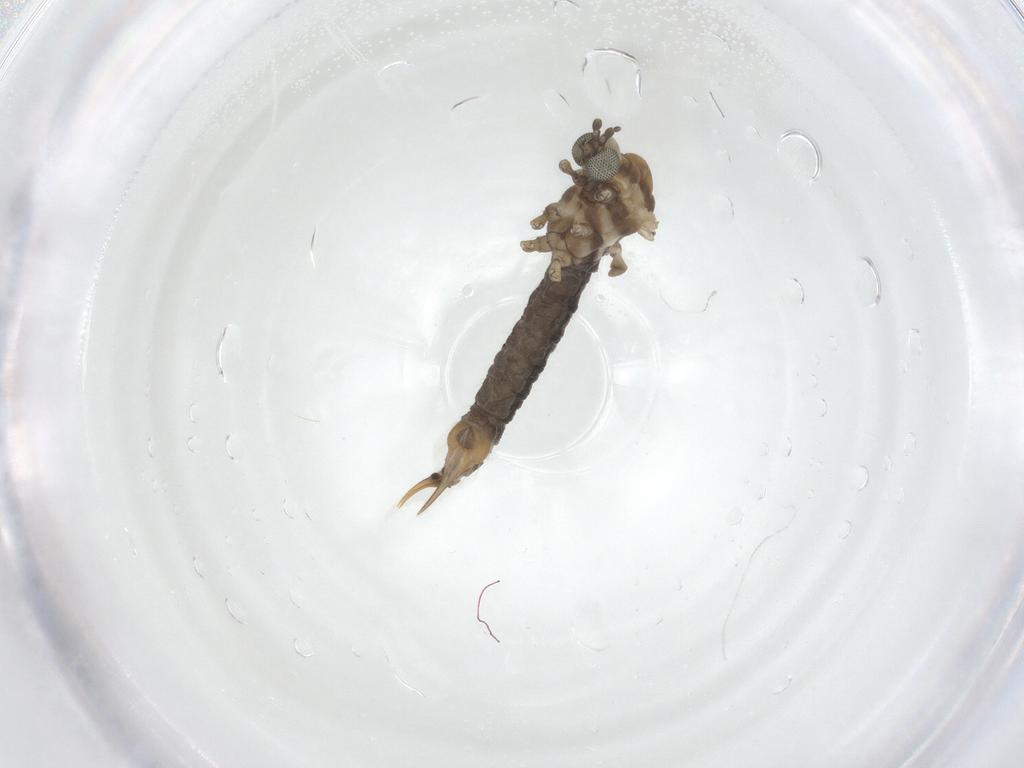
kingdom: Animalia
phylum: Arthropoda
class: Insecta
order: Diptera
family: Limoniidae
